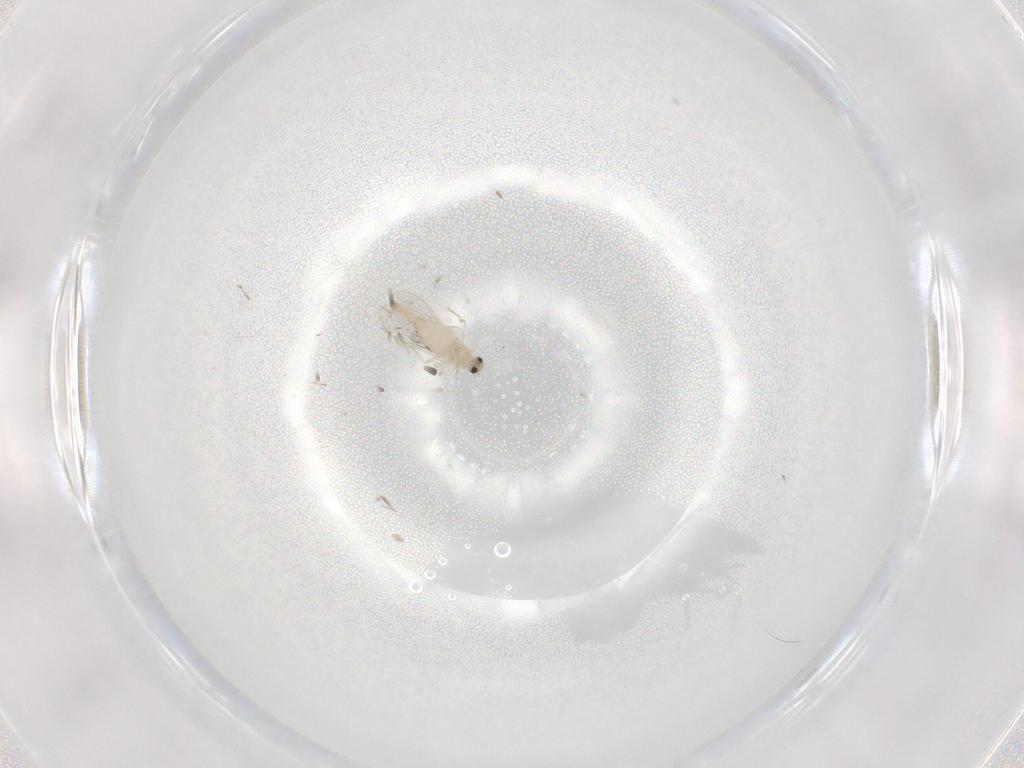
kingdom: Animalia
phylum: Arthropoda
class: Insecta
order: Diptera
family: Cecidomyiidae
